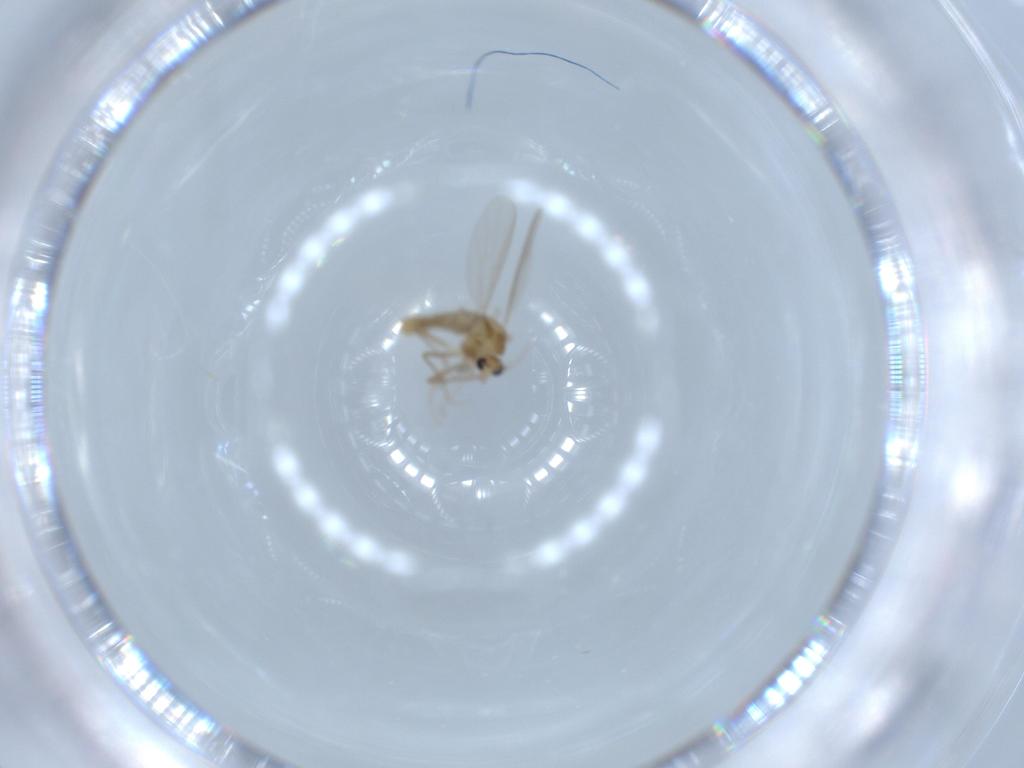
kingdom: Animalia
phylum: Arthropoda
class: Insecta
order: Diptera
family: Chironomidae
